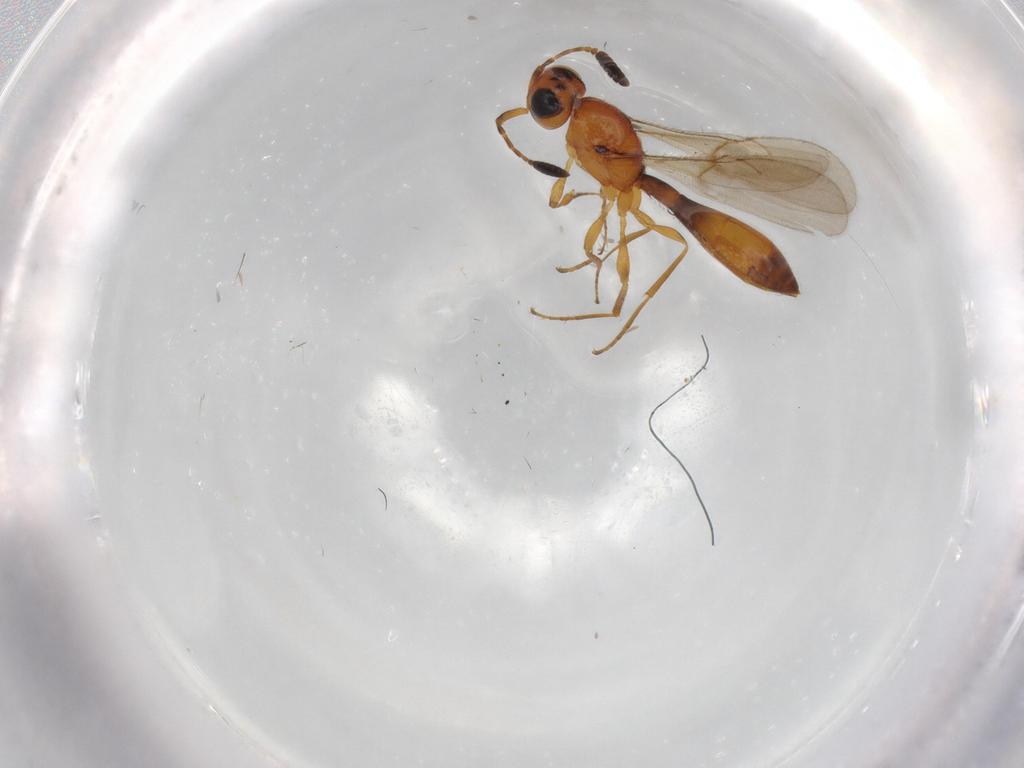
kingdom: Animalia
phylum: Arthropoda
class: Insecta
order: Hymenoptera
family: Scelionidae
